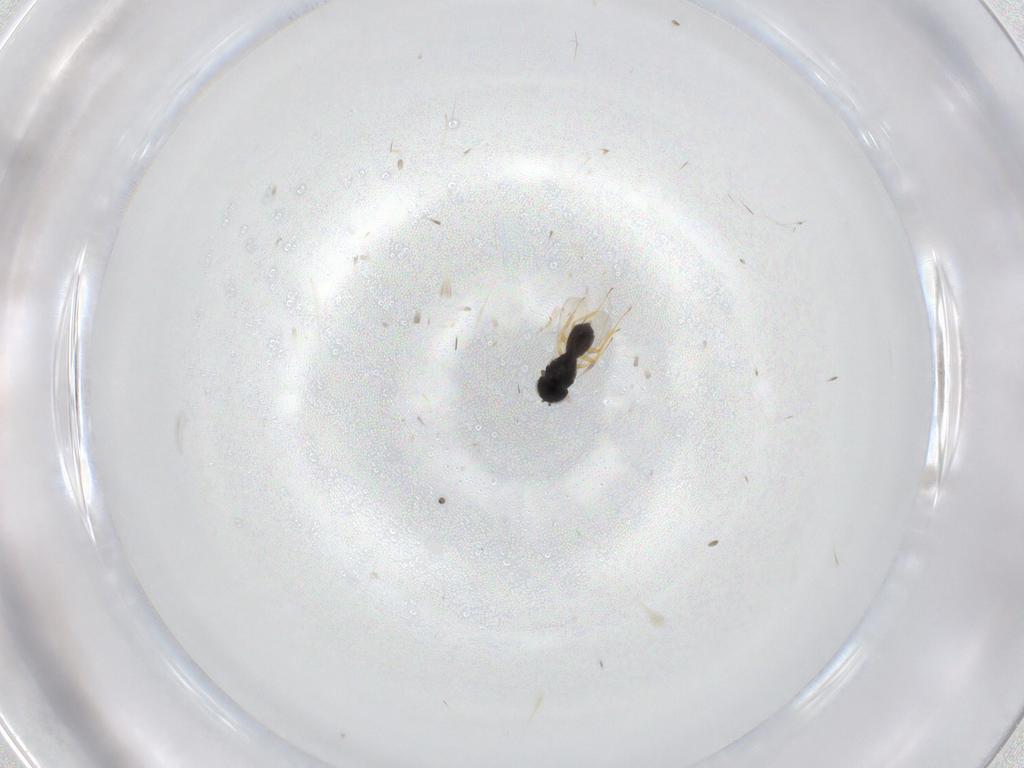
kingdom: Animalia
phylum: Arthropoda
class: Insecta
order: Hymenoptera
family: Scelionidae
